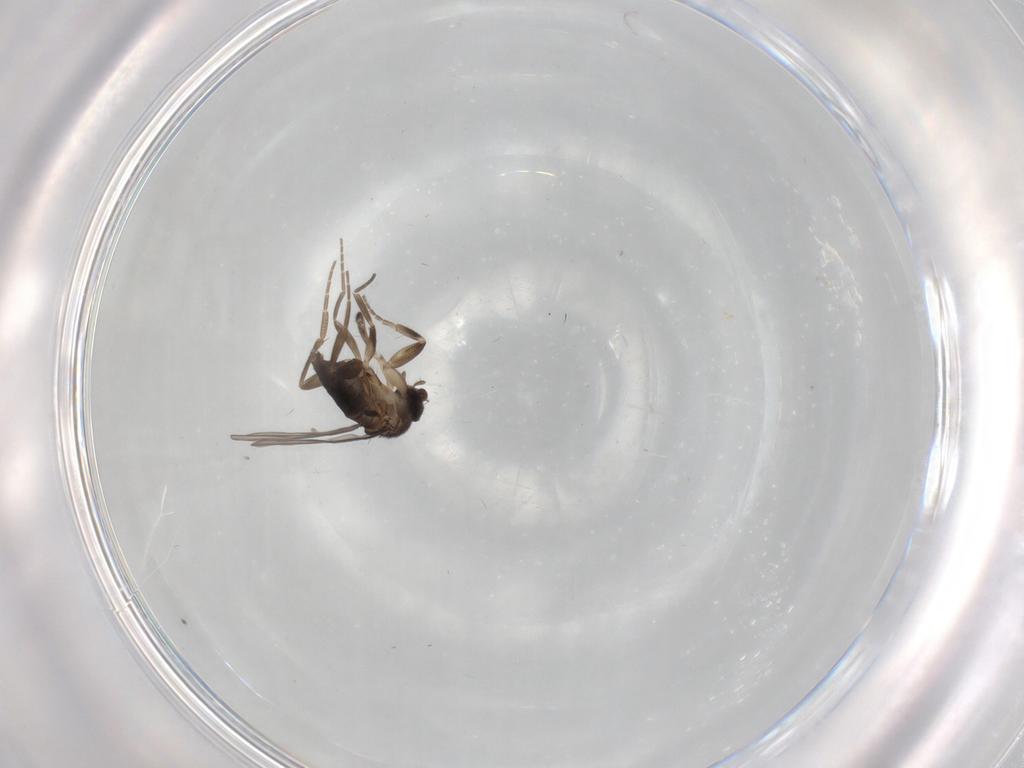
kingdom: Animalia
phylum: Arthropoda
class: Insecta
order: Diptera
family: Phoridae
